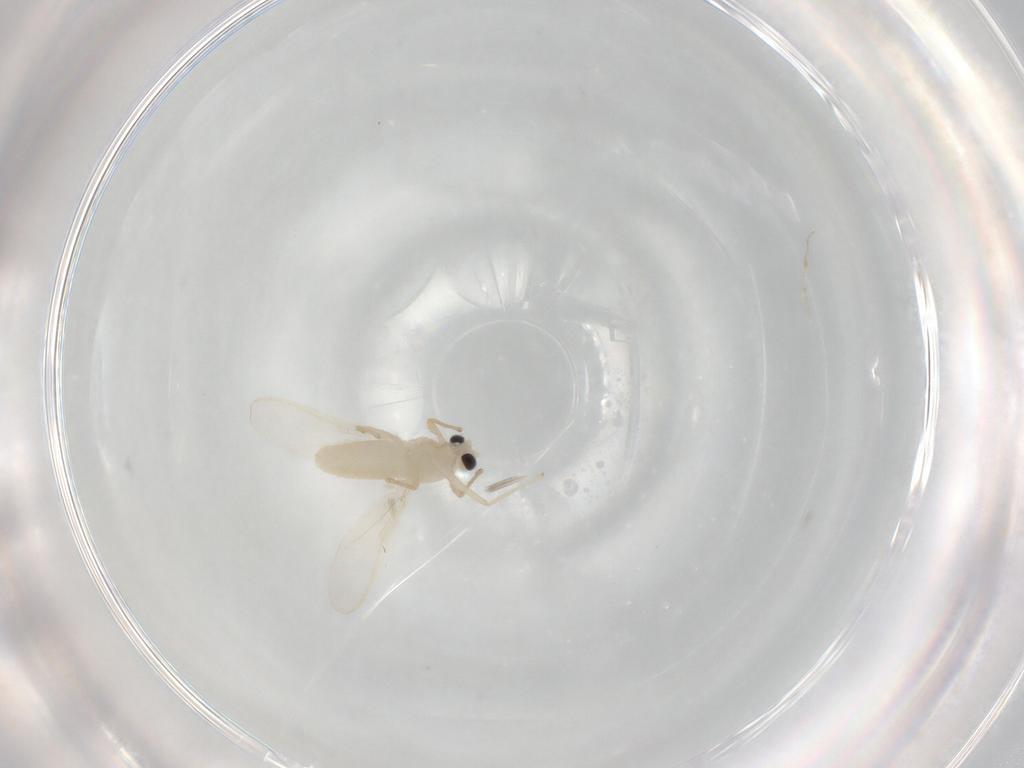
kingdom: Animalia
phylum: Arthropoda
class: Insecta
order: Diptera
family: Chironomidae
